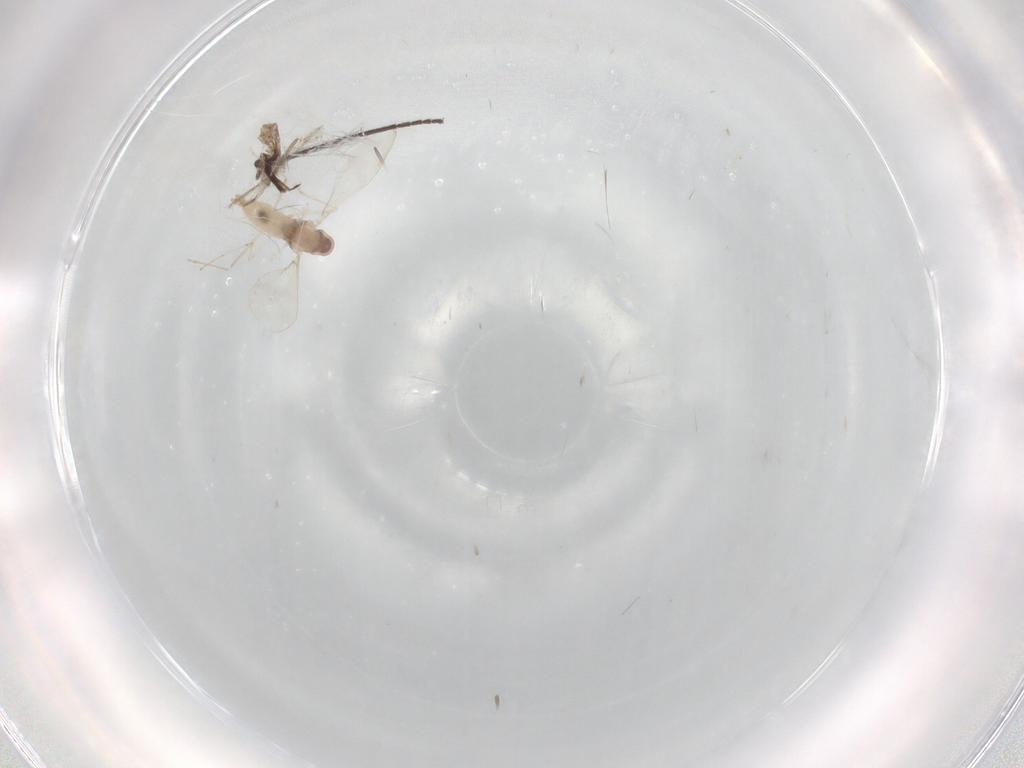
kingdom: Animalia
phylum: Arthropoda
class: Insecta
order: Diptera
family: Cecidomyiidae
